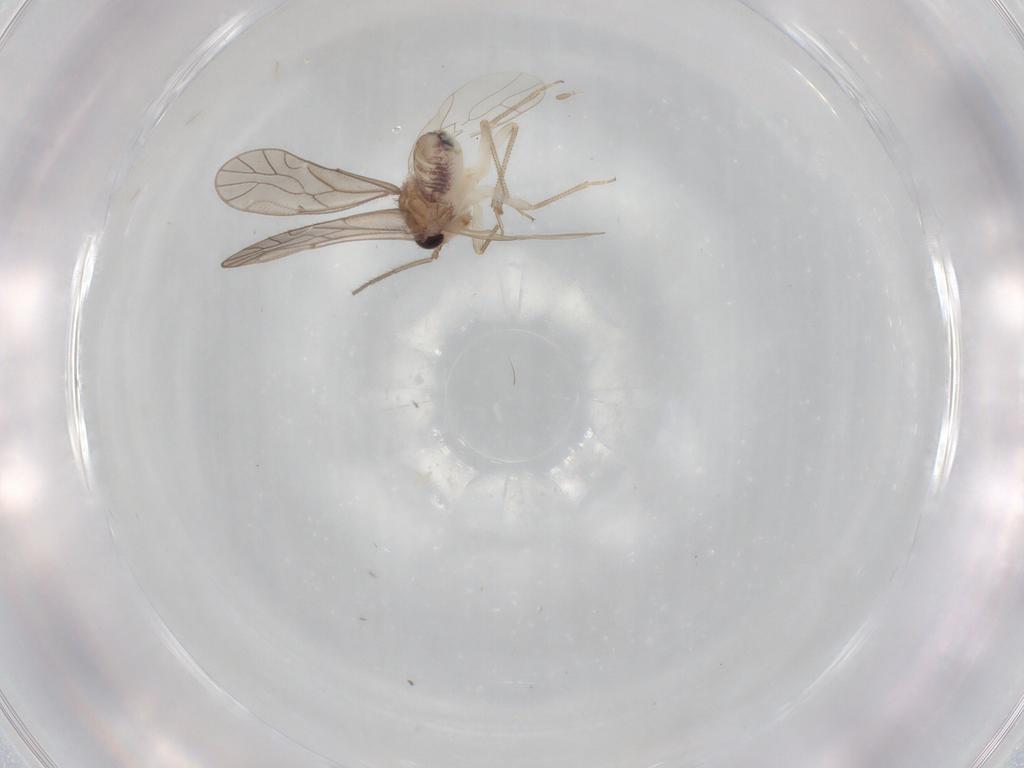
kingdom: Animalia
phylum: Arthropoda
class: Insecta
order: Psocodea
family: Caeciliusidae
